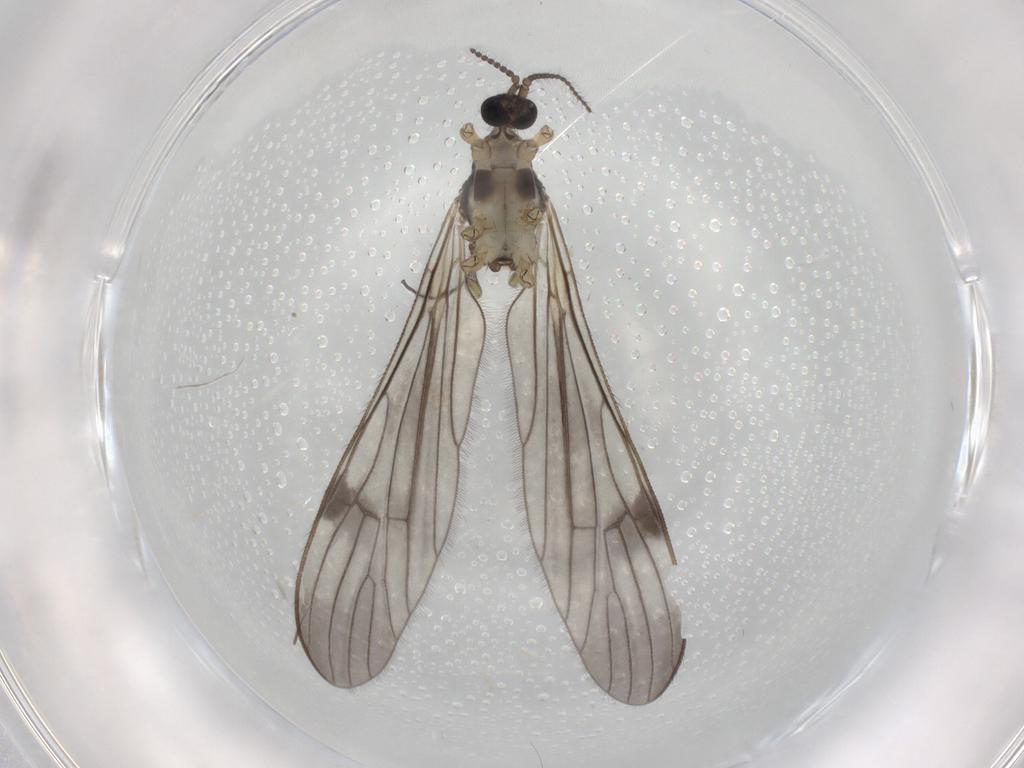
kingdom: Animalia
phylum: Arthropoda
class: Insecta
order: Diptera
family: Limoniidae
